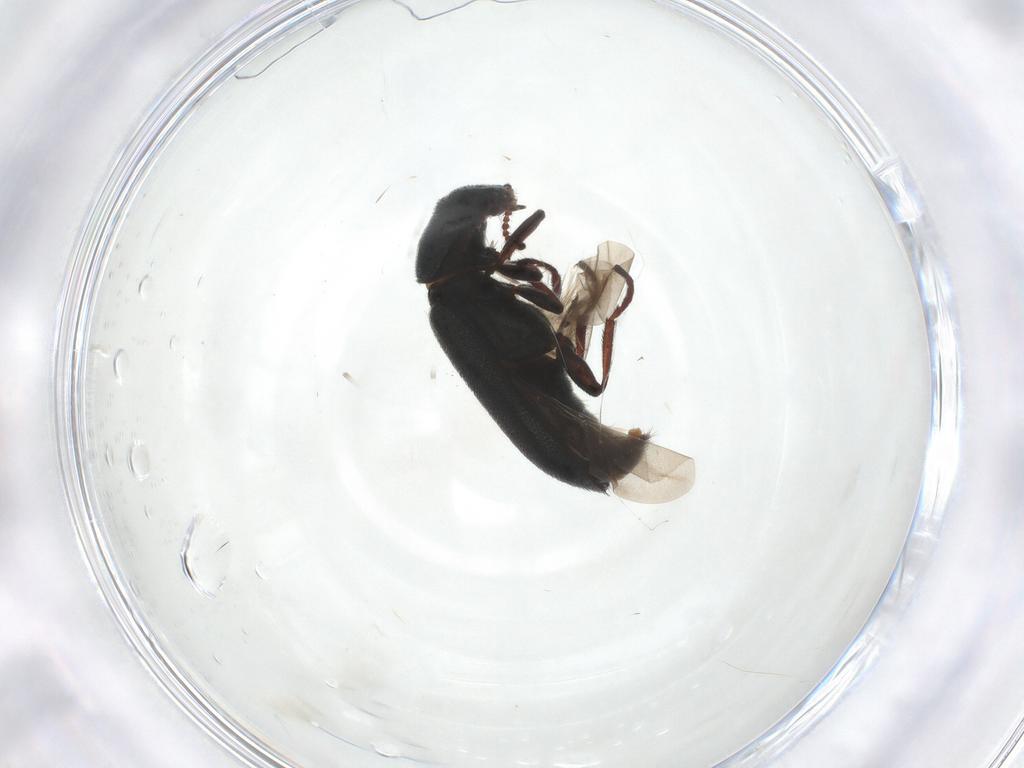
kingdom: Animalia
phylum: Arthropoda
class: Insecta
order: Coleoptera
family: Melyridae
